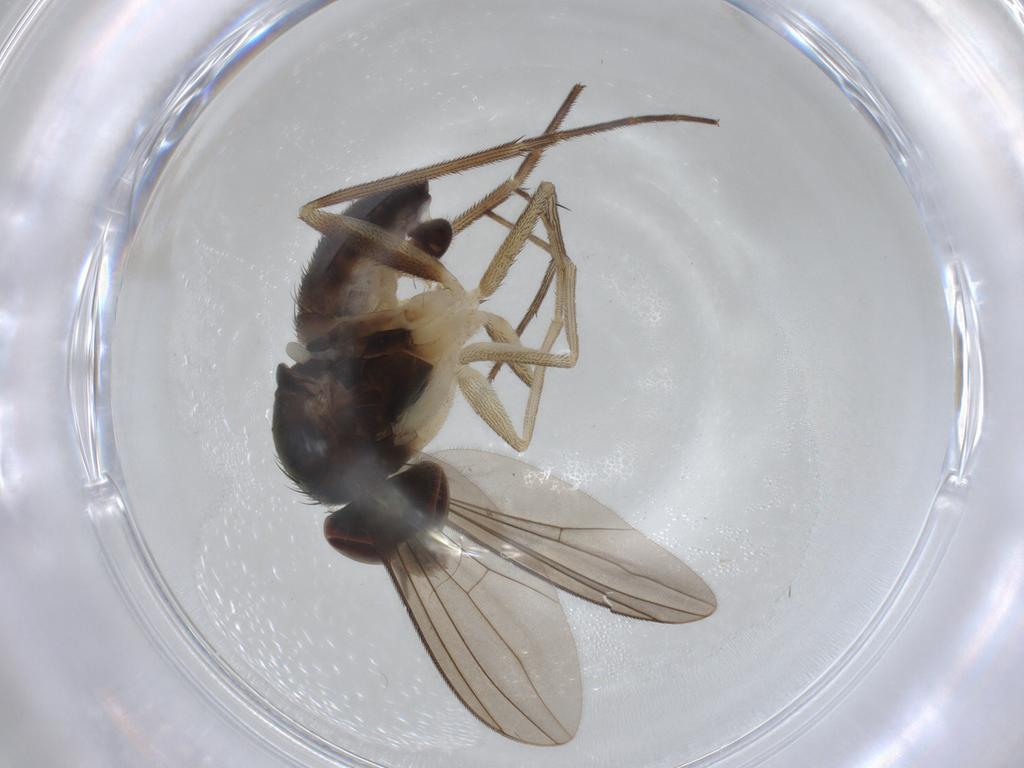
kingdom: Animalia
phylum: Arthropoda
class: Insecta
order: Diptera
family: Dolichopodidae
